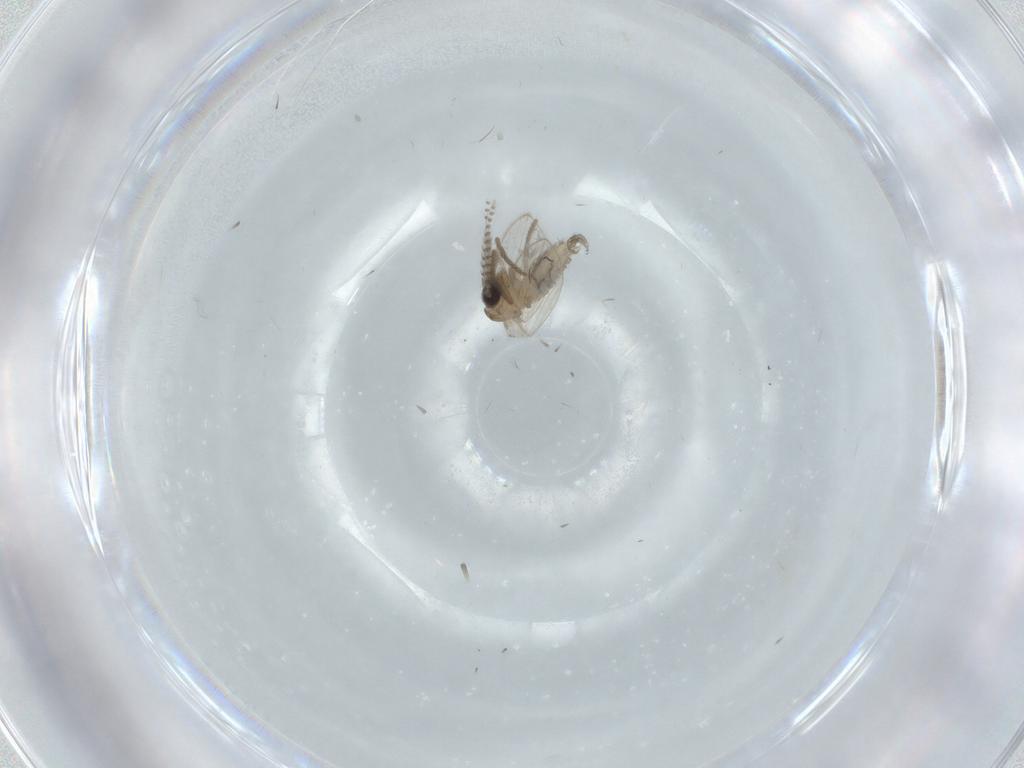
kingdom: Animalia
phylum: Arthropoda
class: Insecta
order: Diptera
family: Psychodidae
